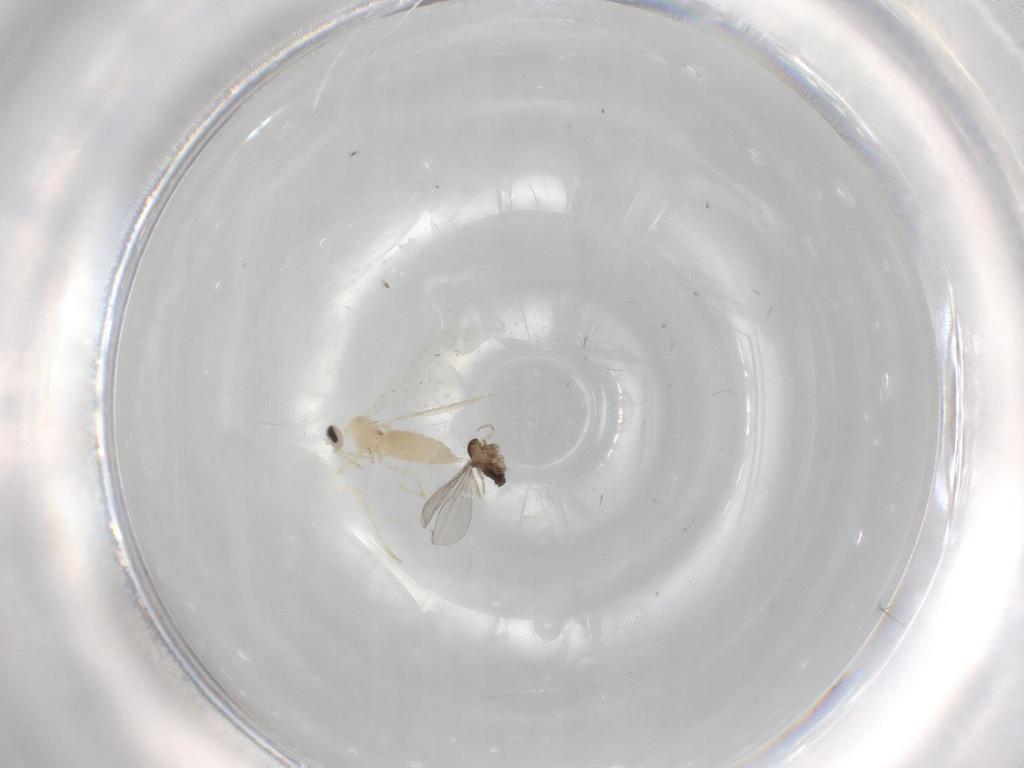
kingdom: Animalia
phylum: Arthropoda
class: Insecta
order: Diptera
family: Cecidomyiidae
